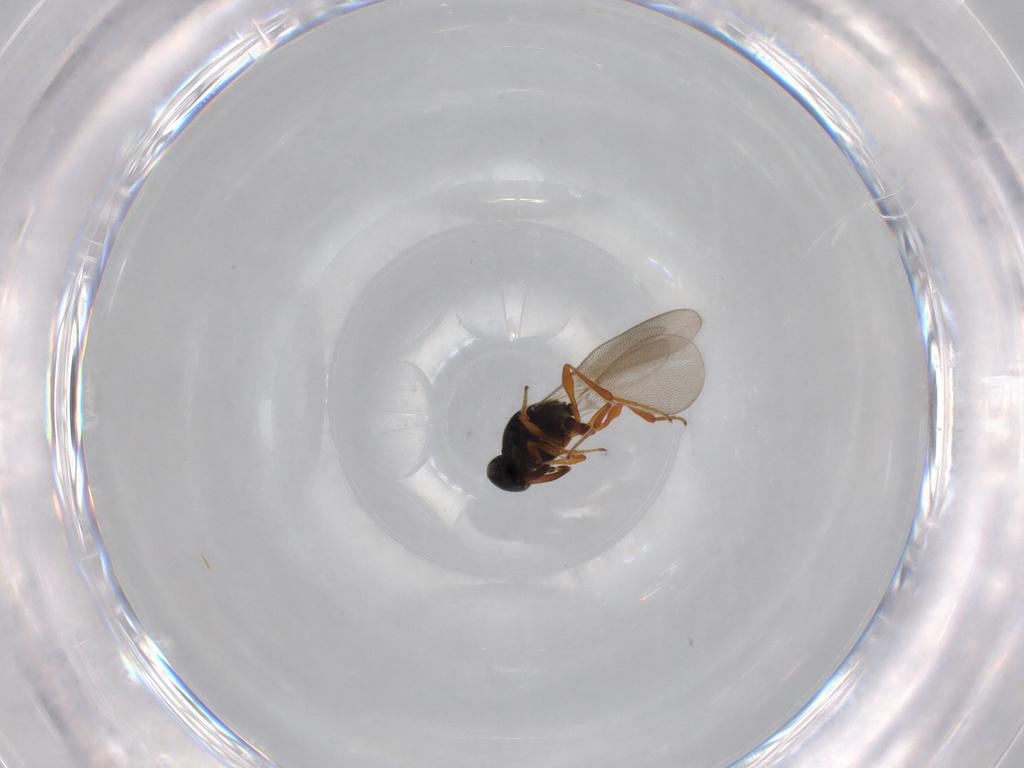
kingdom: Animalia
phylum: Arthropoda
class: Insecta
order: Hymenoptera
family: Platygastridae
